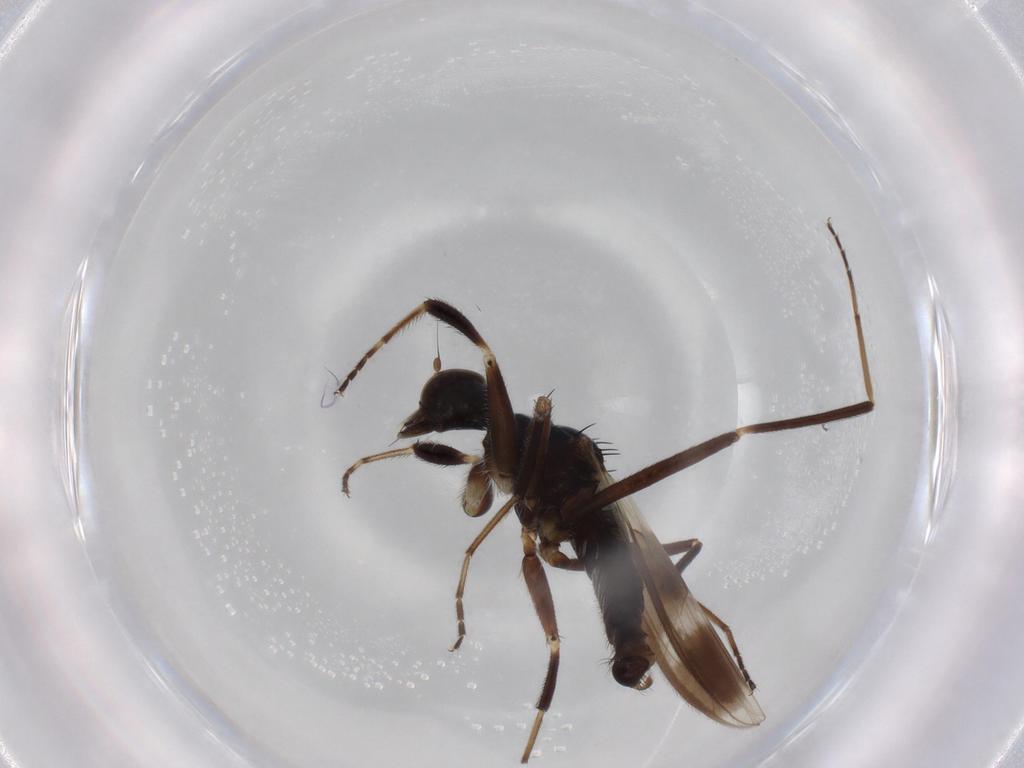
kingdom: Animalia
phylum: Arthropoda
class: Insecta
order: Diptera
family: Hybotidae
